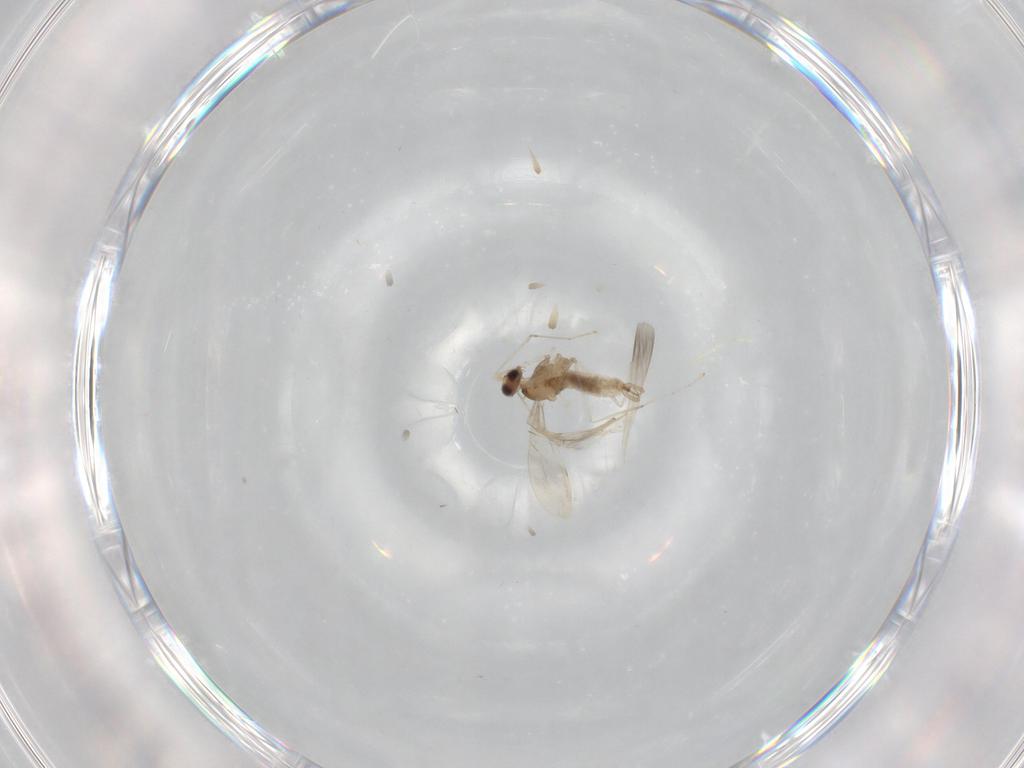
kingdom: Animalia
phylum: Arthropoda
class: Insecta
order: Diptera
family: Cecidomyiidae
